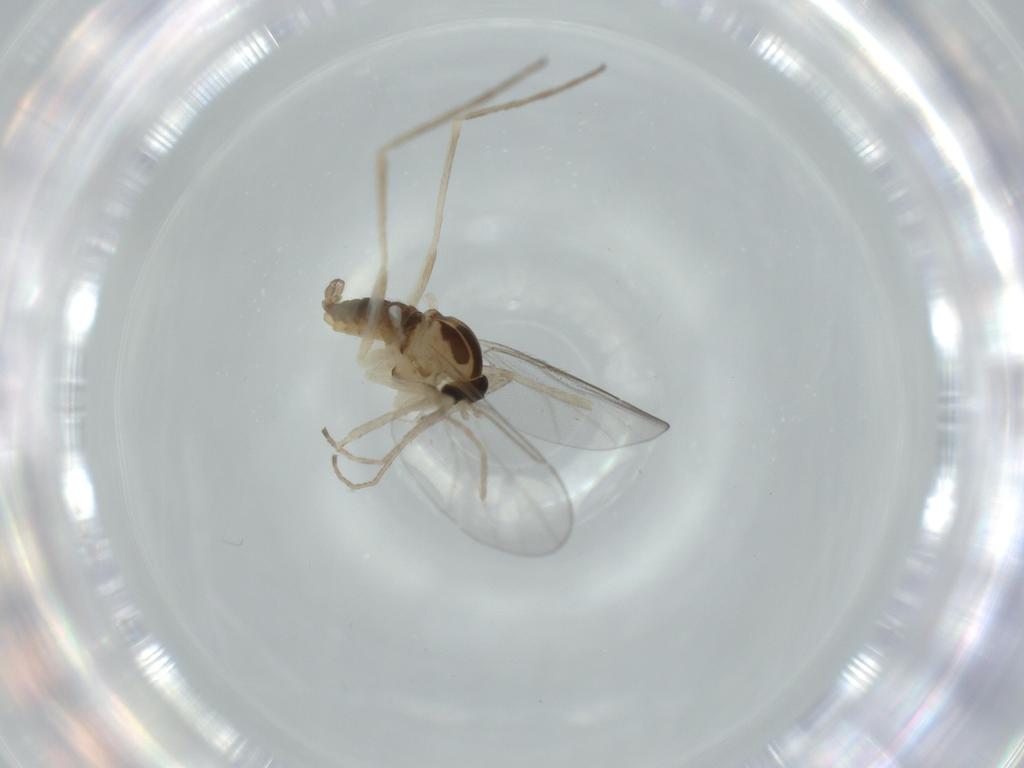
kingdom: Animalia
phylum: Arthropoda
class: Insecta
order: Diptera
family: Cecidomyiidae
